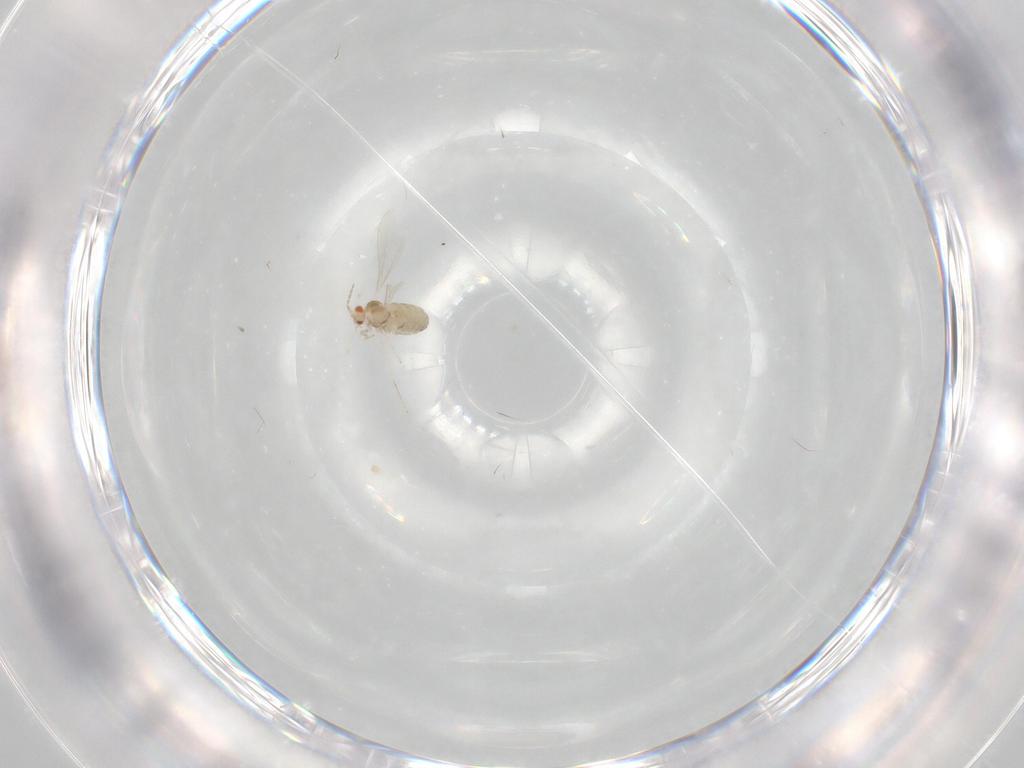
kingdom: Animalia
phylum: Arthropoda
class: Insecta
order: Diptera
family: Cecidomyiidae
